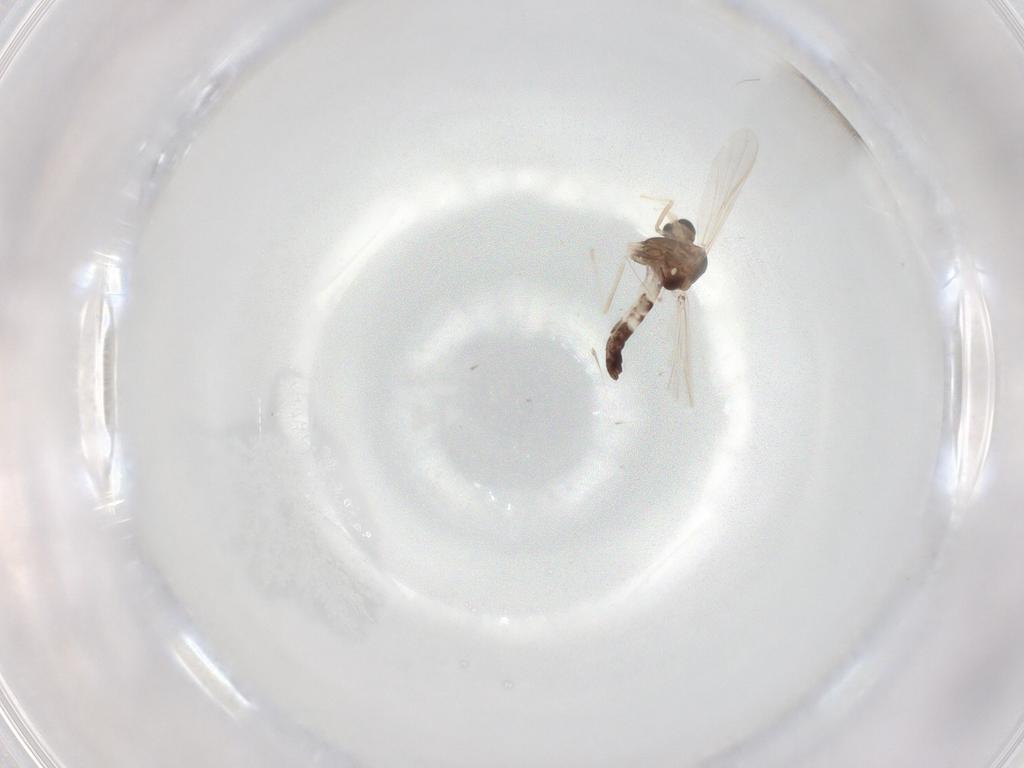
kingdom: Animalia
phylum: Arthropoda
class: Insecta
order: Diptera
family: Chironomidae
